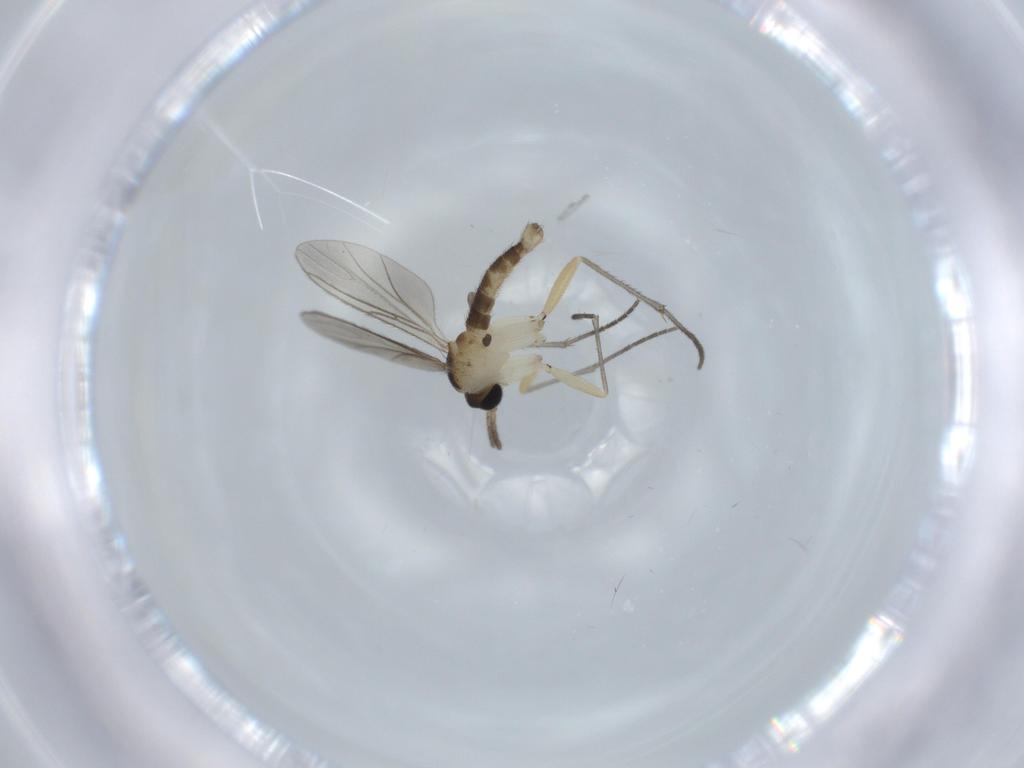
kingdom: Animalia
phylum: Arthropoda
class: Insecta
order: Diptera
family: Sciaridae
